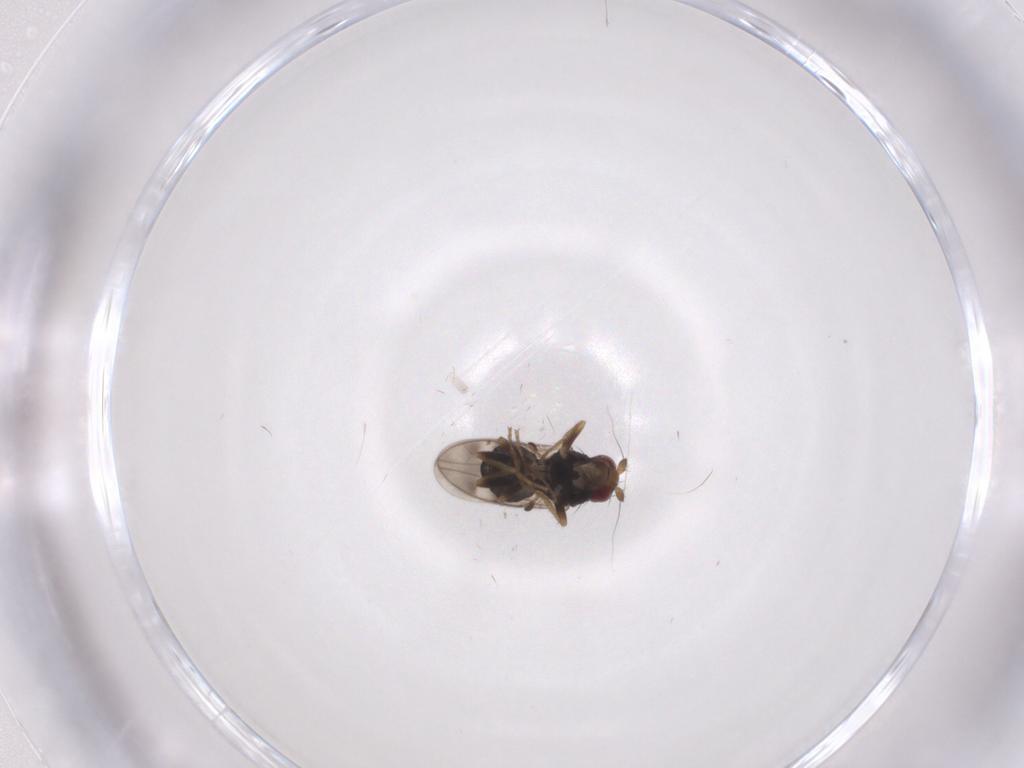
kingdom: Animalia
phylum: Arthropoda
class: Insecta
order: Diptera
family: Sphaeroceridae
